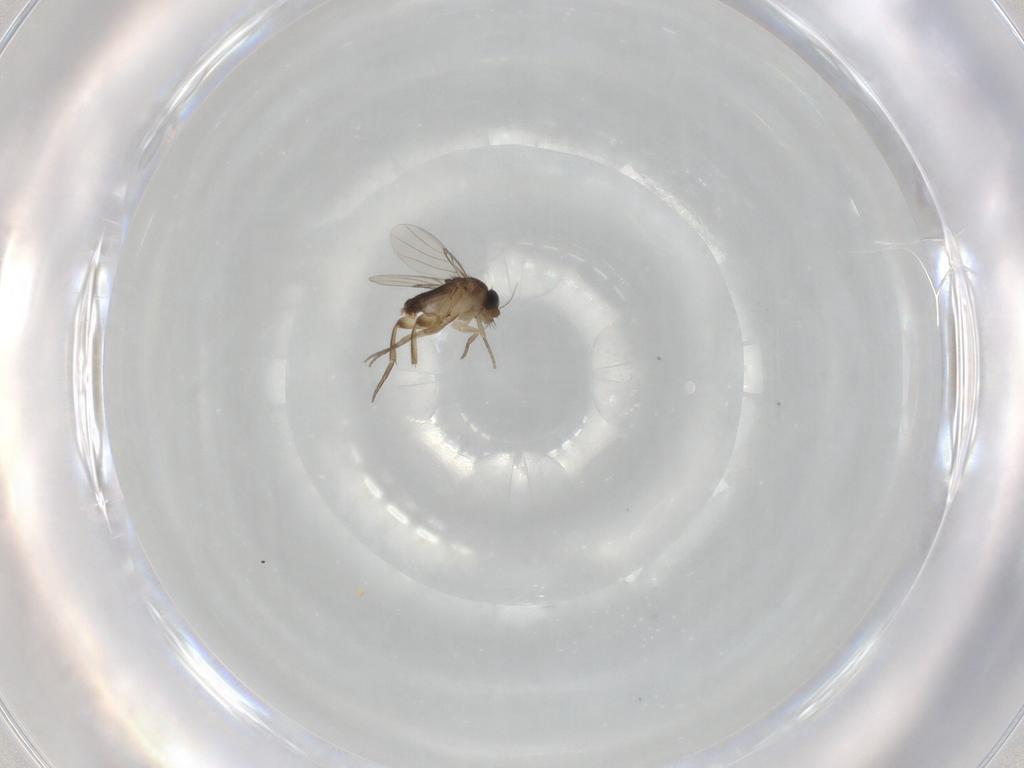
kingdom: Animalia
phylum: Arthropoda
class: Insecta
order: Diptera
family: Phoridae
